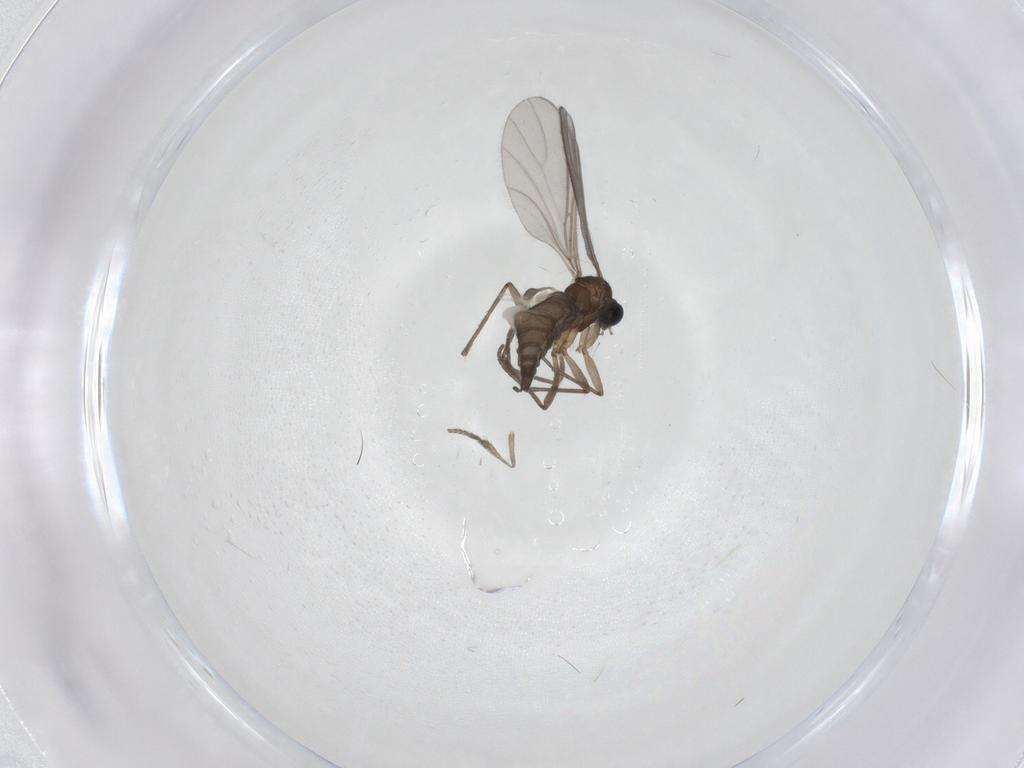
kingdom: Animalia
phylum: Arthropoda
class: Insecta
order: Diptera
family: Psychodidae
